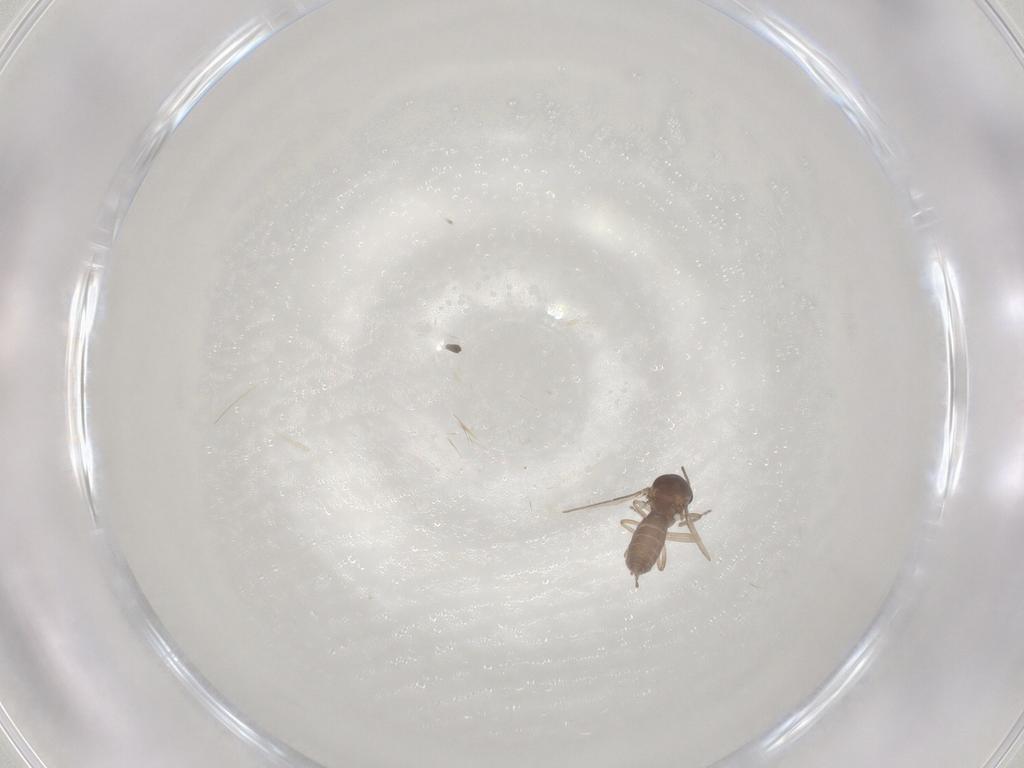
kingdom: Animalia
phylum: Arthropoda
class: Insecta
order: Diptera
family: Ceratopogonidae
